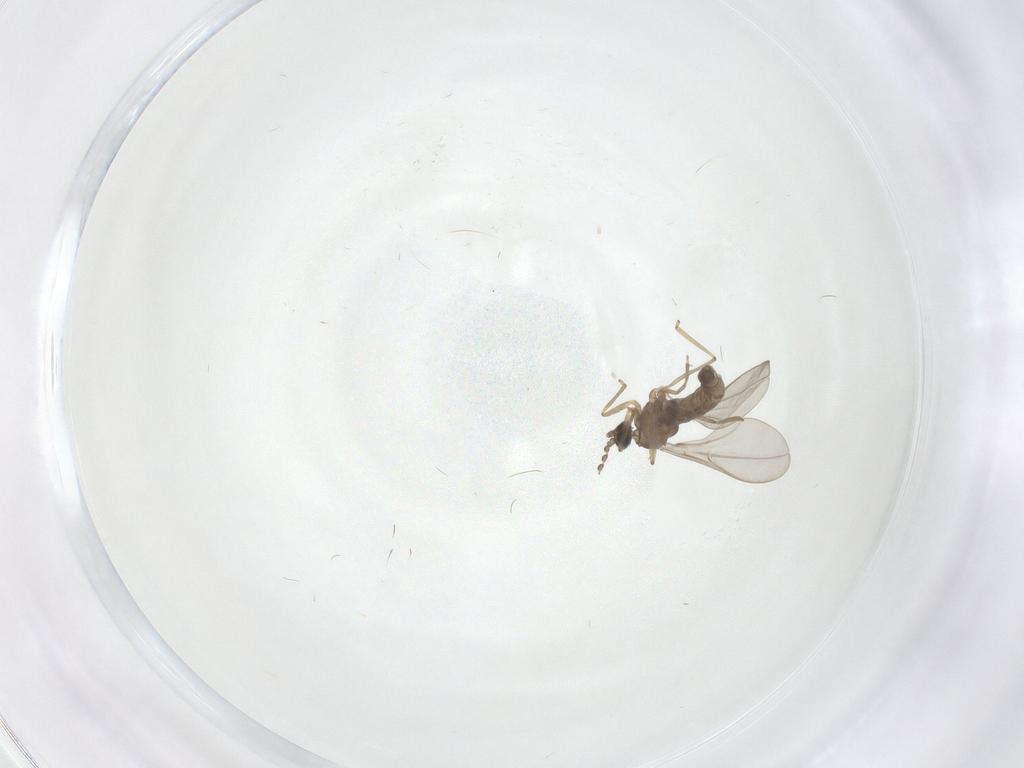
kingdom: Animalia
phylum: Arthropoda
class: Insecta
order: Diptera
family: Cecidomyiidae
